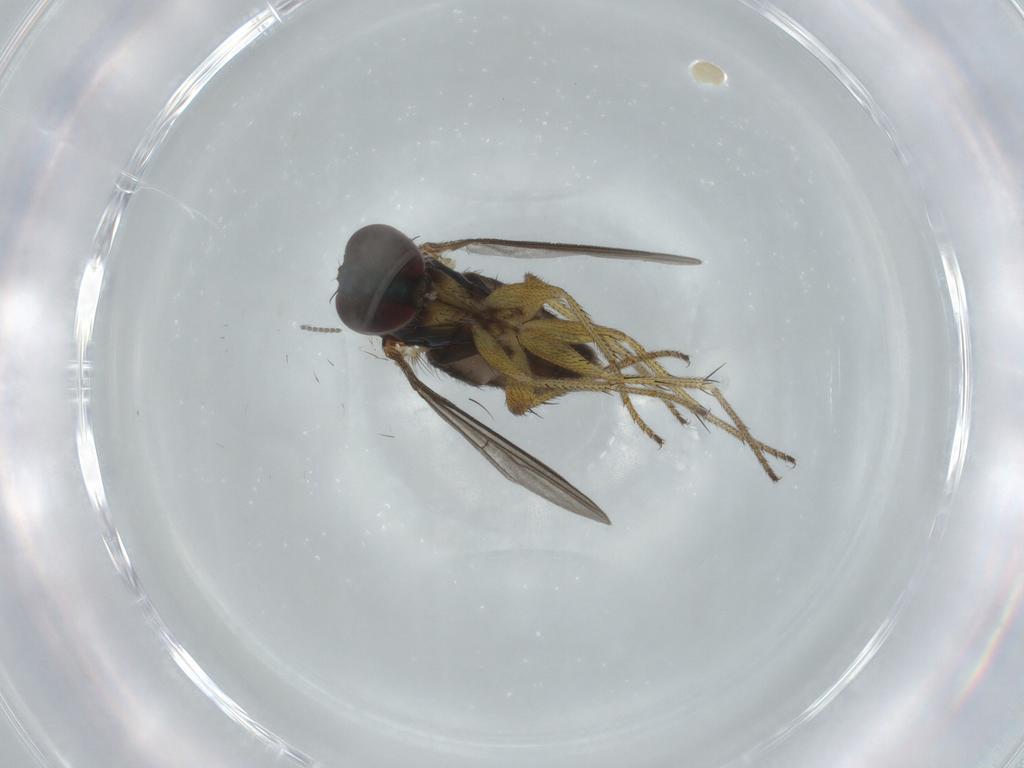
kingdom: Animalia
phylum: Arthropoda
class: Insecta
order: Diptera
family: Dolichopodidae
